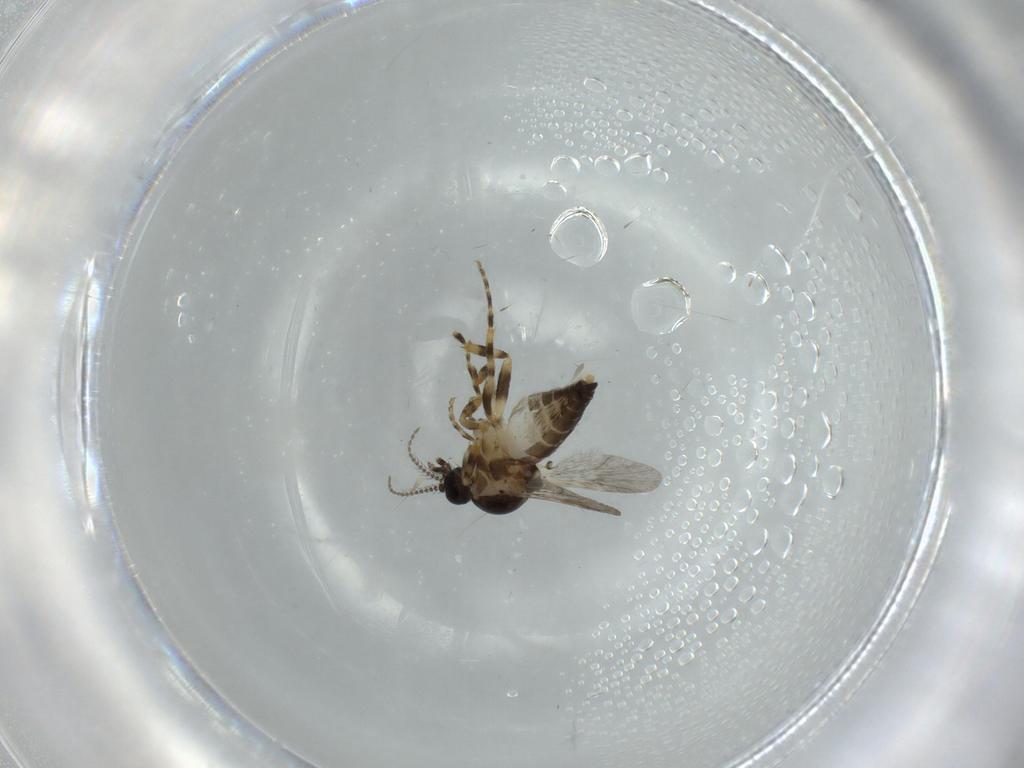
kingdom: Animalia
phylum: Arthropoda
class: Insecta
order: Diptera
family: Ceratopogonidae
